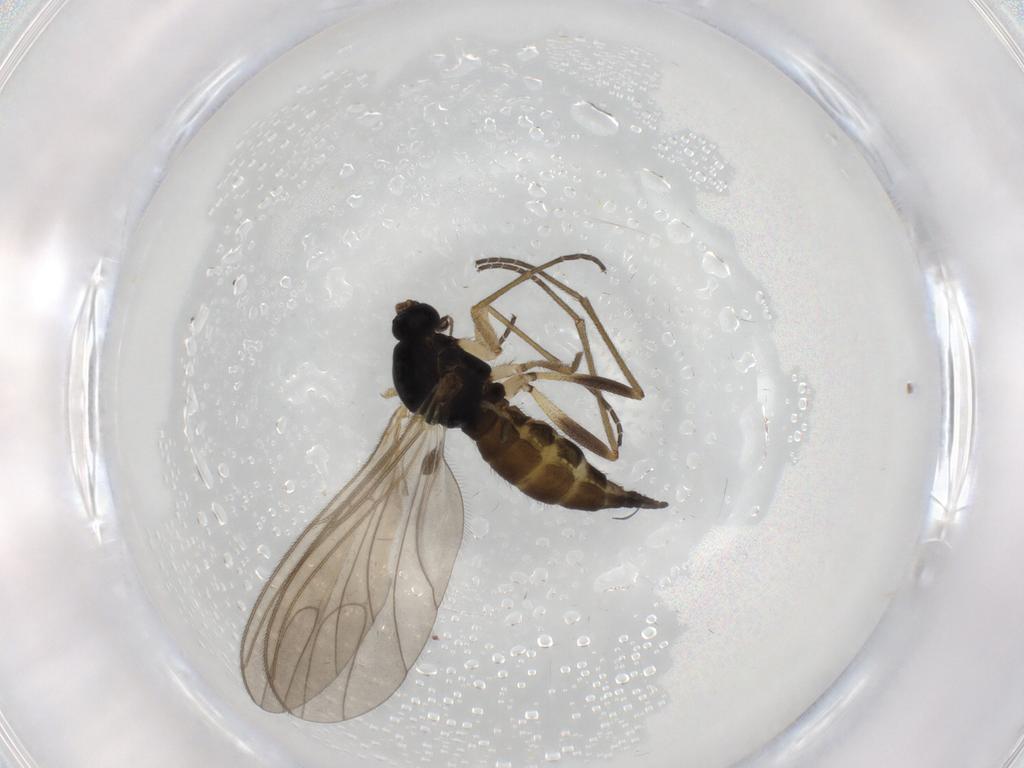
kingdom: Animalia
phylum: Arthropoda
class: Insecta
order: Diptera
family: Sciaridae
